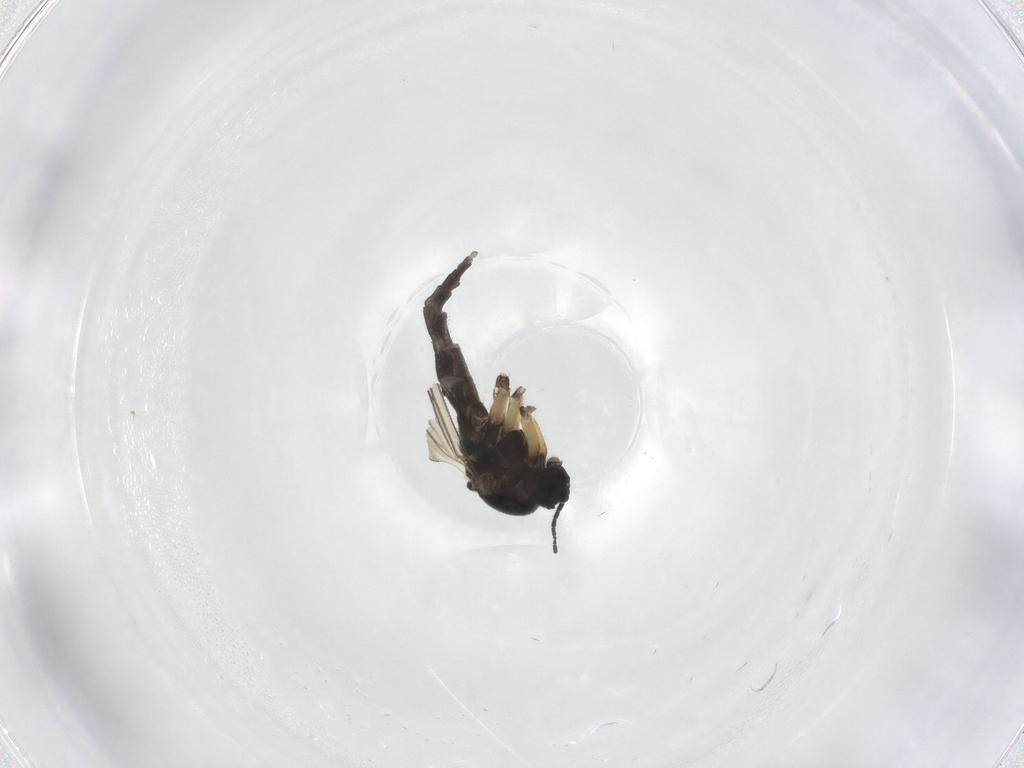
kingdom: Animalia
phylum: Arthropoda
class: Insecta
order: Diptera
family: Sciaridae
